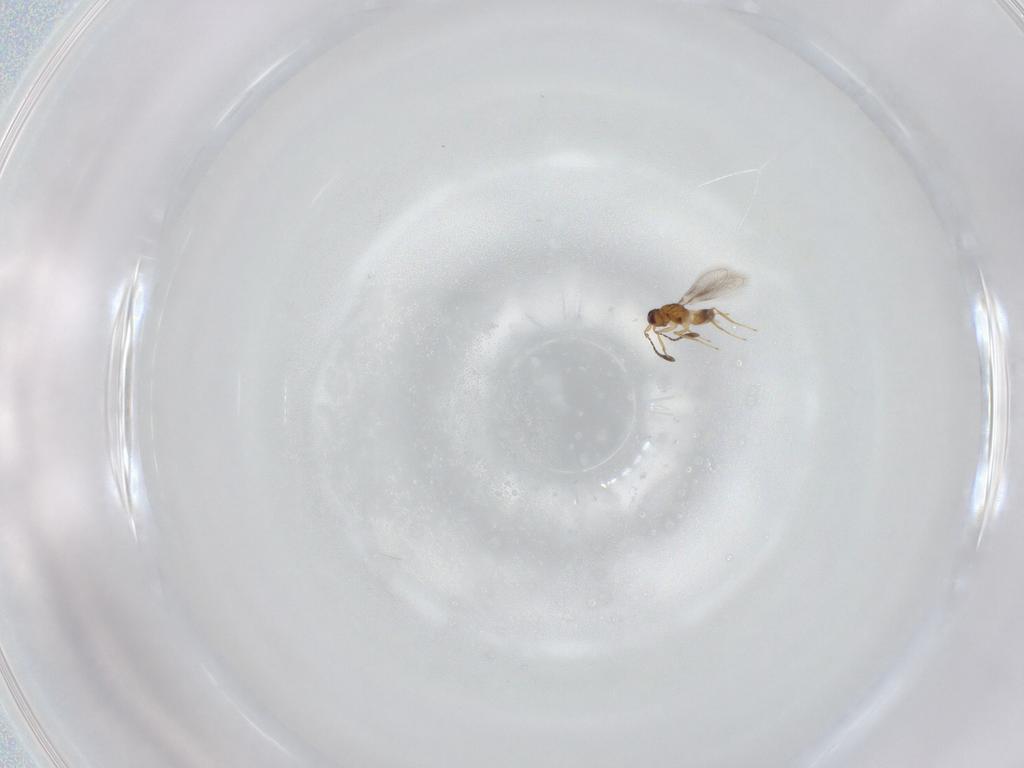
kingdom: Animalia
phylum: Arthropoda
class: Insecta
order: Hymenoptera
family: Mymaridae
